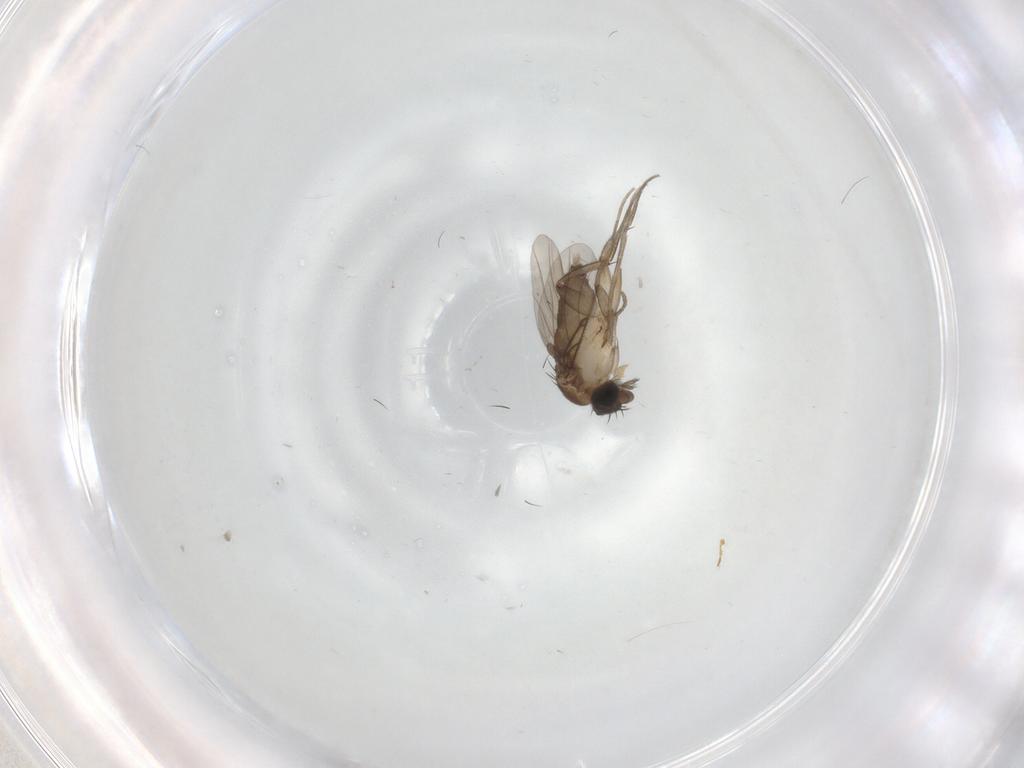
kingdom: Animalia
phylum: Arthropoda
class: Insecta
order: Diptera
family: Phoridae
